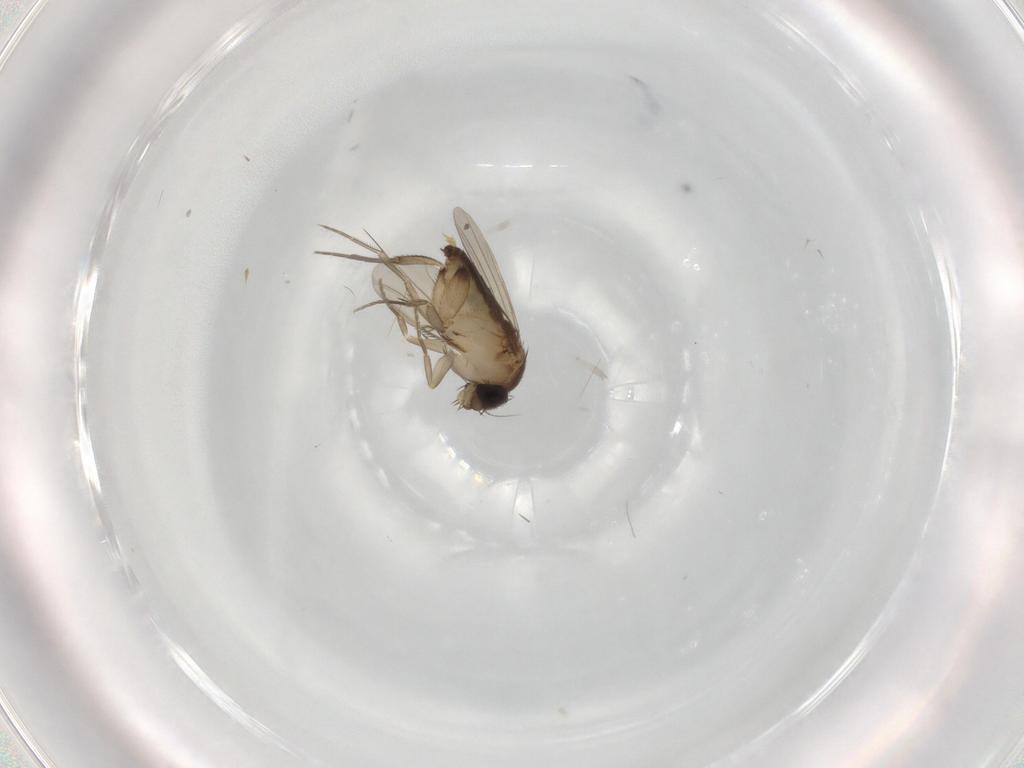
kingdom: Animalia
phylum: Arthropoda
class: Insecta
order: Diptera
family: Phoridae
